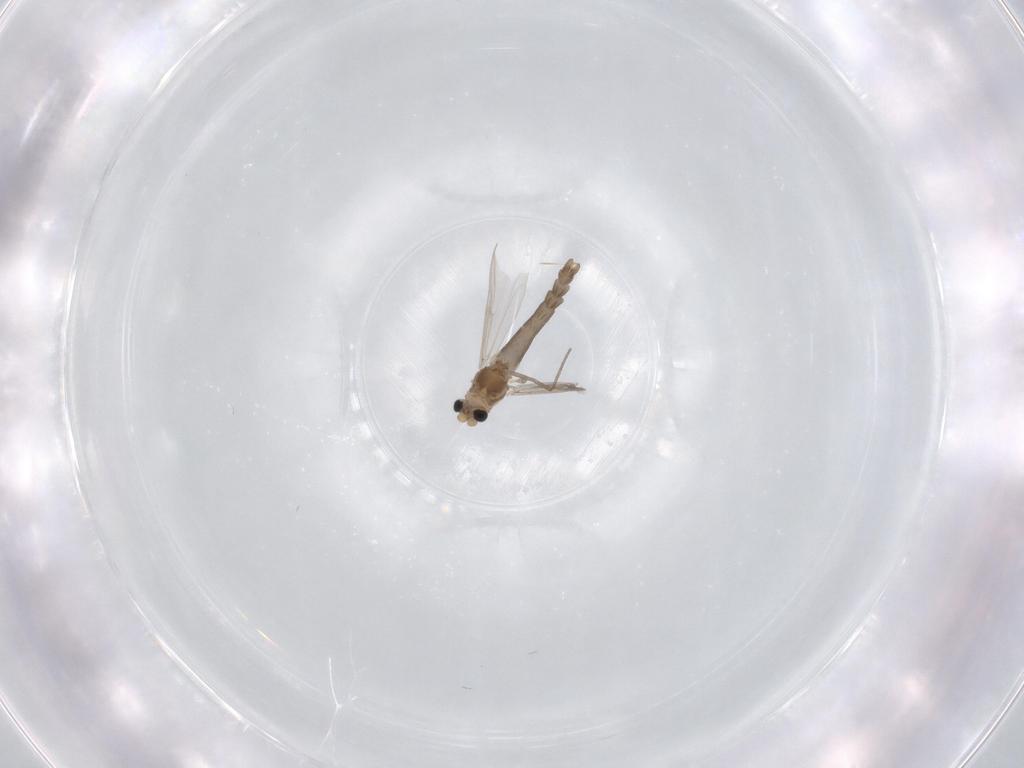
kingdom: Animalia
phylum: Arthropoda
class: Insecta
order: Diptera
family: Chironomidae
